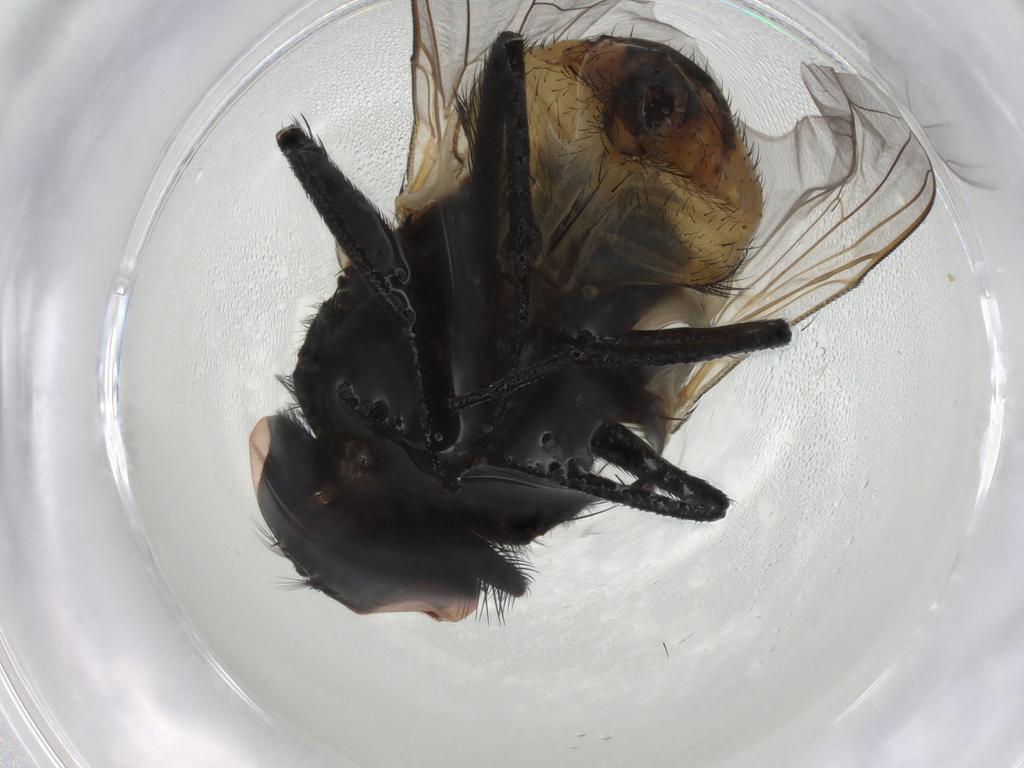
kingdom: Animalia
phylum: Arthropoda
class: Insecta
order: Diptera
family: Muscidae
